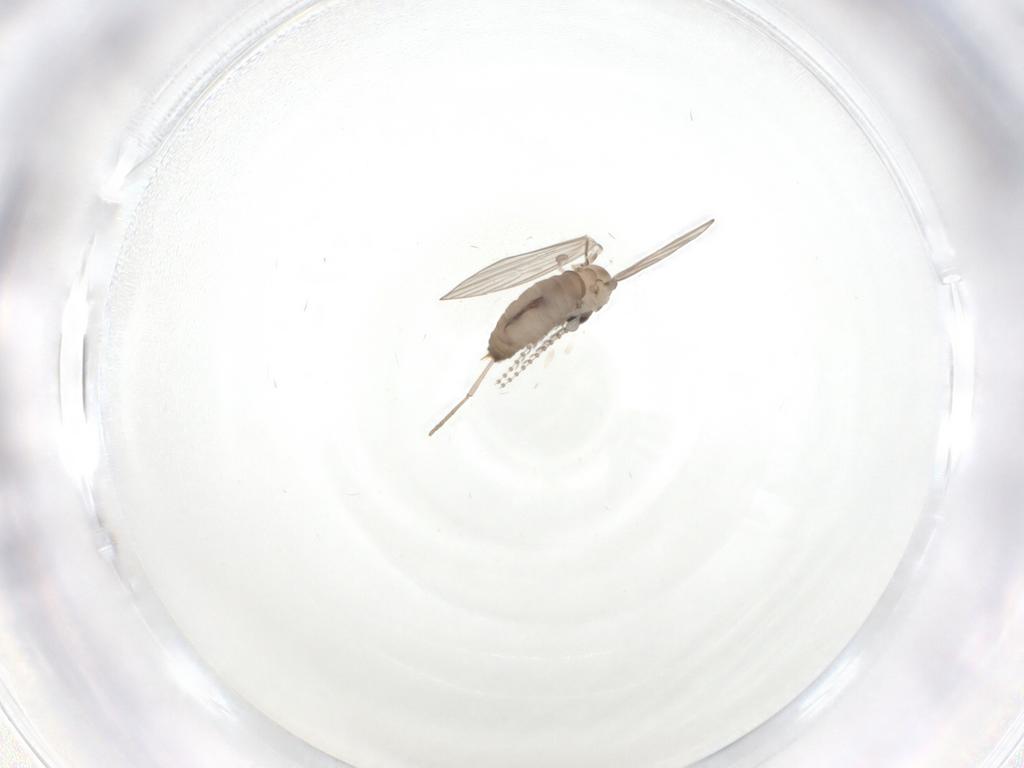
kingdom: Animalia
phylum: Arthropoda
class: Insecta
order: Diptera
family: Psychodidae
